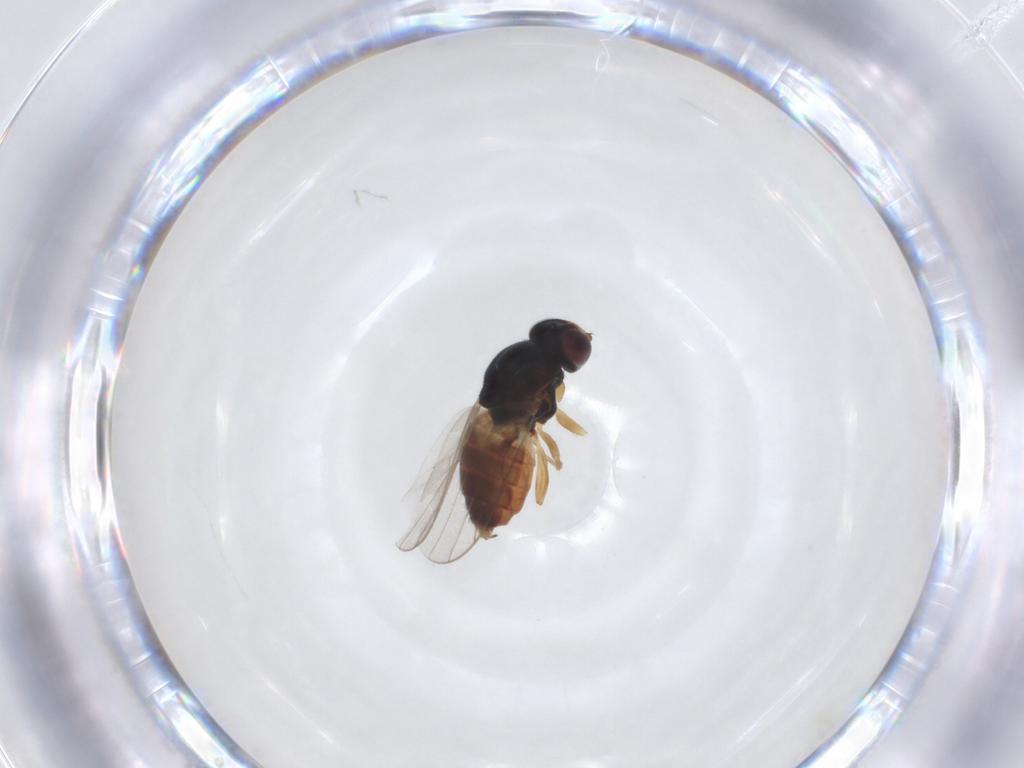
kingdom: Animalia
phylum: Arthropoda
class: Insecta
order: Diptera
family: Chloropidae
